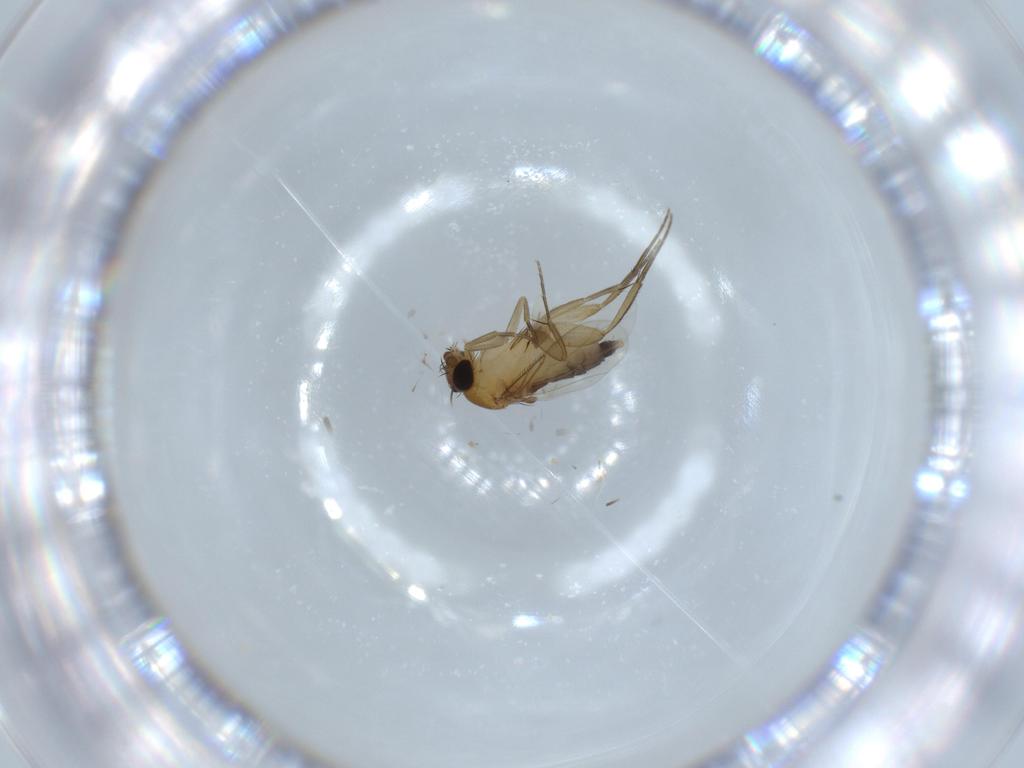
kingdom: Animalia
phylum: Arthropoda
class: Insecta
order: Diptera
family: Phoridae
